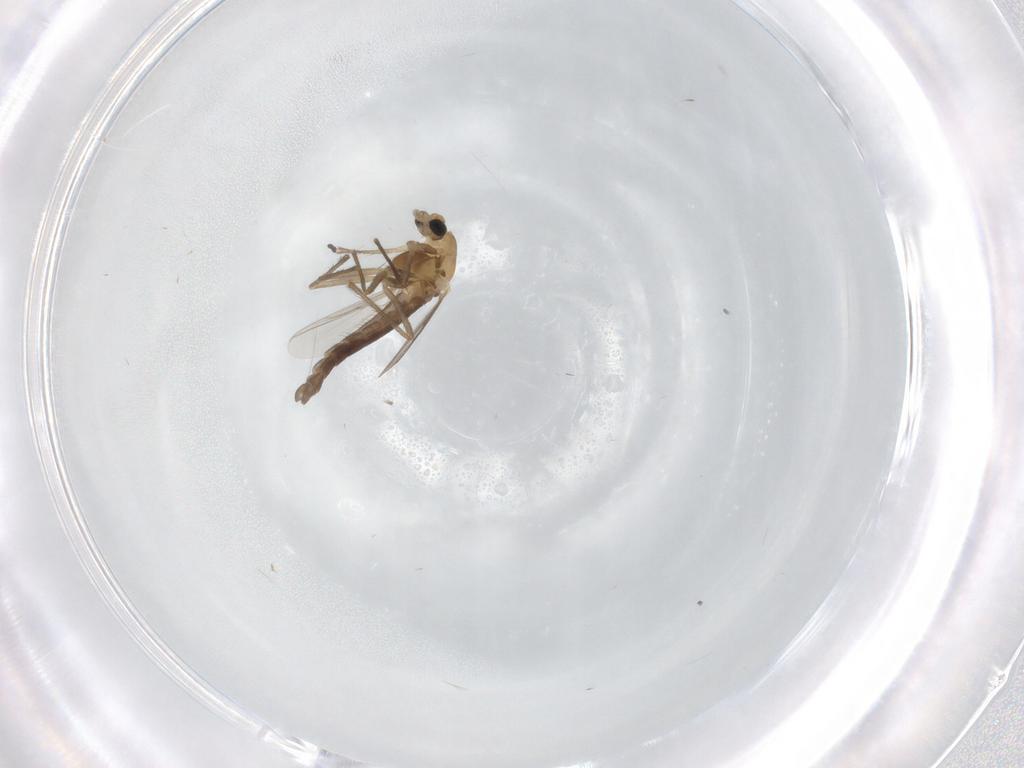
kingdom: Animalia
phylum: Arthropoda
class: Insecta
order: Diptera
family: Chironomidae
